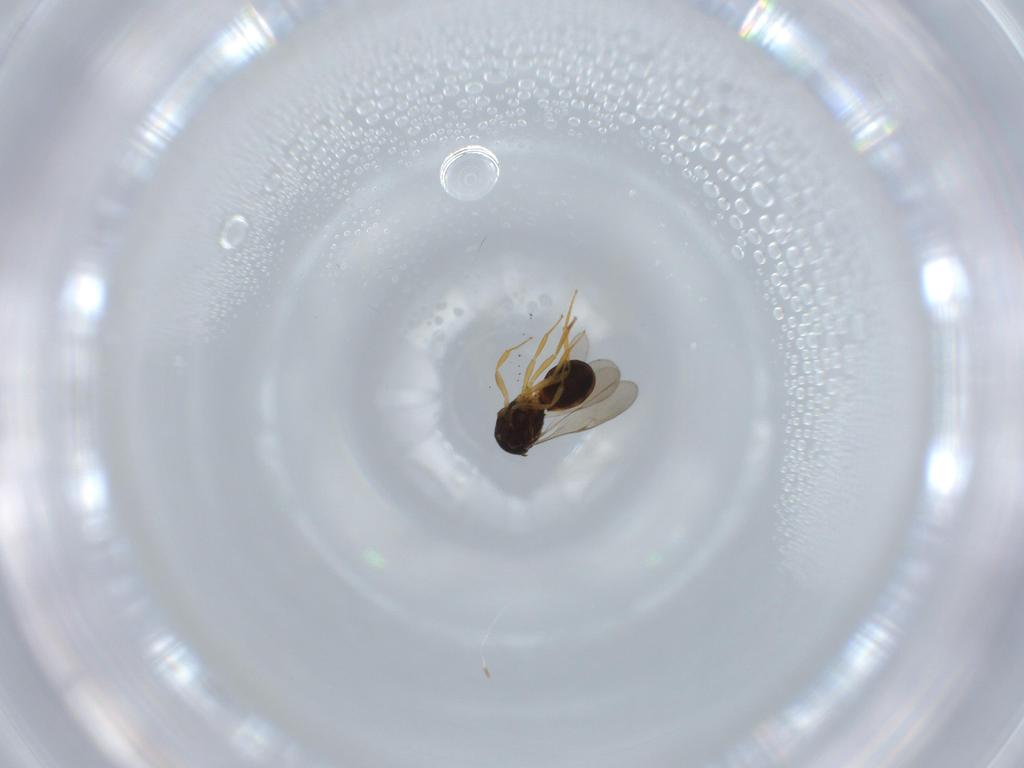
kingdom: Animalia
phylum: Arthropoda
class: Insecta
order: Hymenoptera
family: Scelionidae
